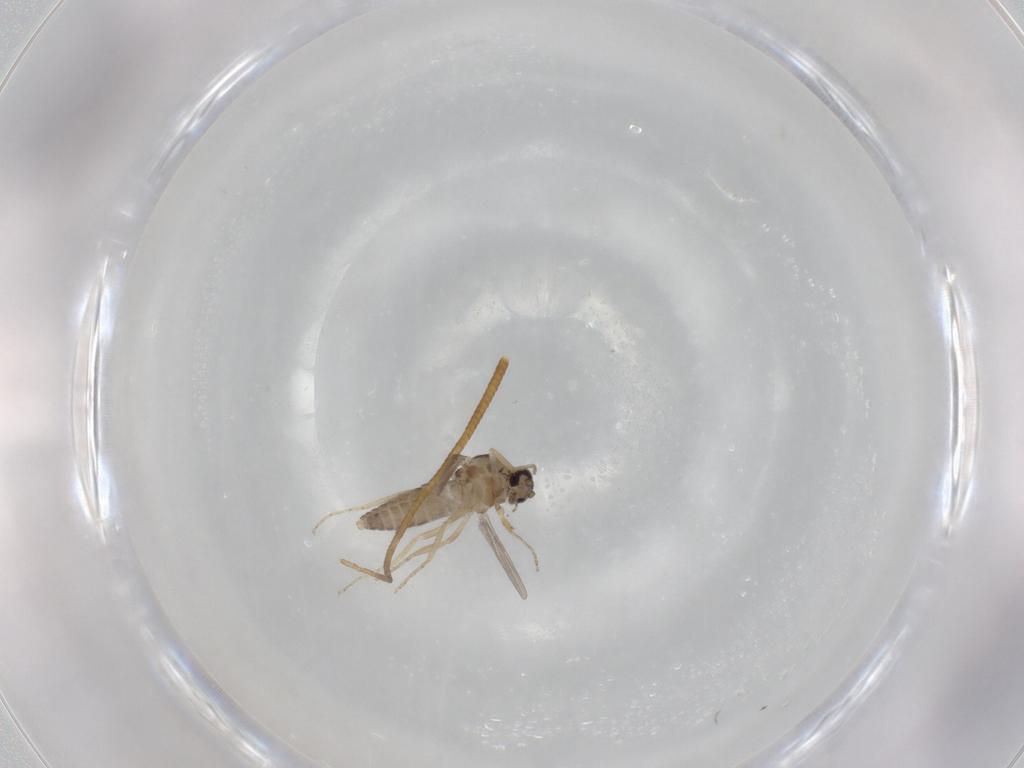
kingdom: Animalia
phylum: Arthropoda
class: Insecta
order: Diptera
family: Ceratopogonidae
